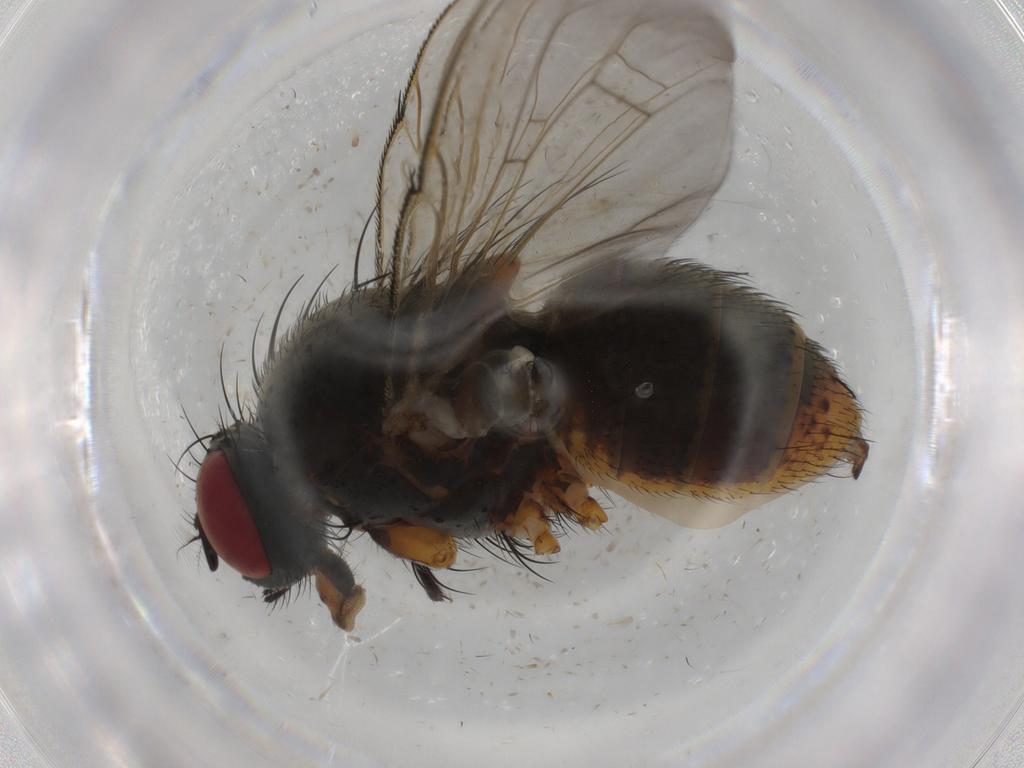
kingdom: Animalia
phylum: Arthropoda
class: Insecta
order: Diptera
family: Muscidae
